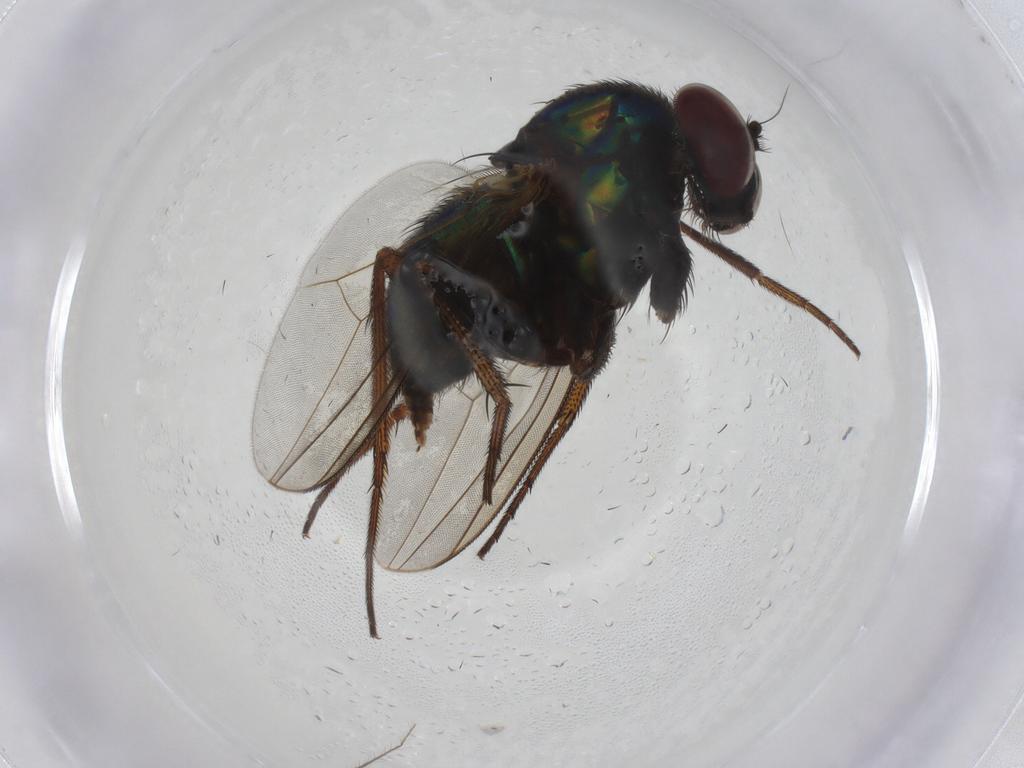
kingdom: Animalia
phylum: Arthropoda
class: Insecta
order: Diptera
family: Dolichopodidae
